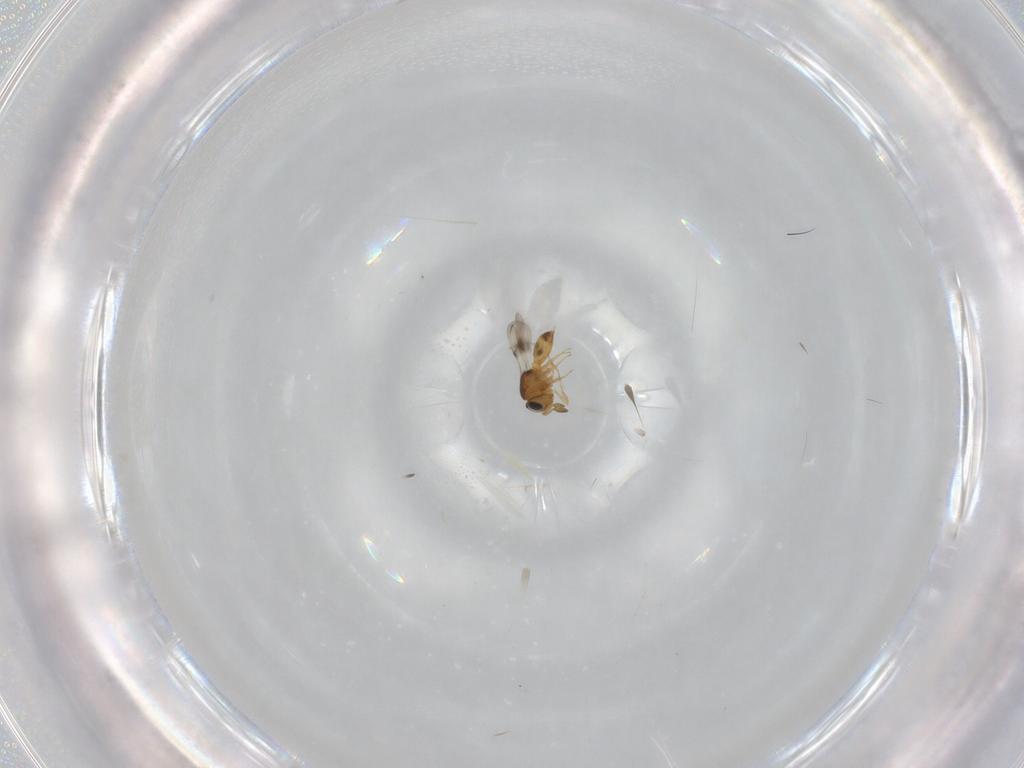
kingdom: Animalia
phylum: Arthropoda
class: Insecta
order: Hymenoptera
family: Scelionidae
